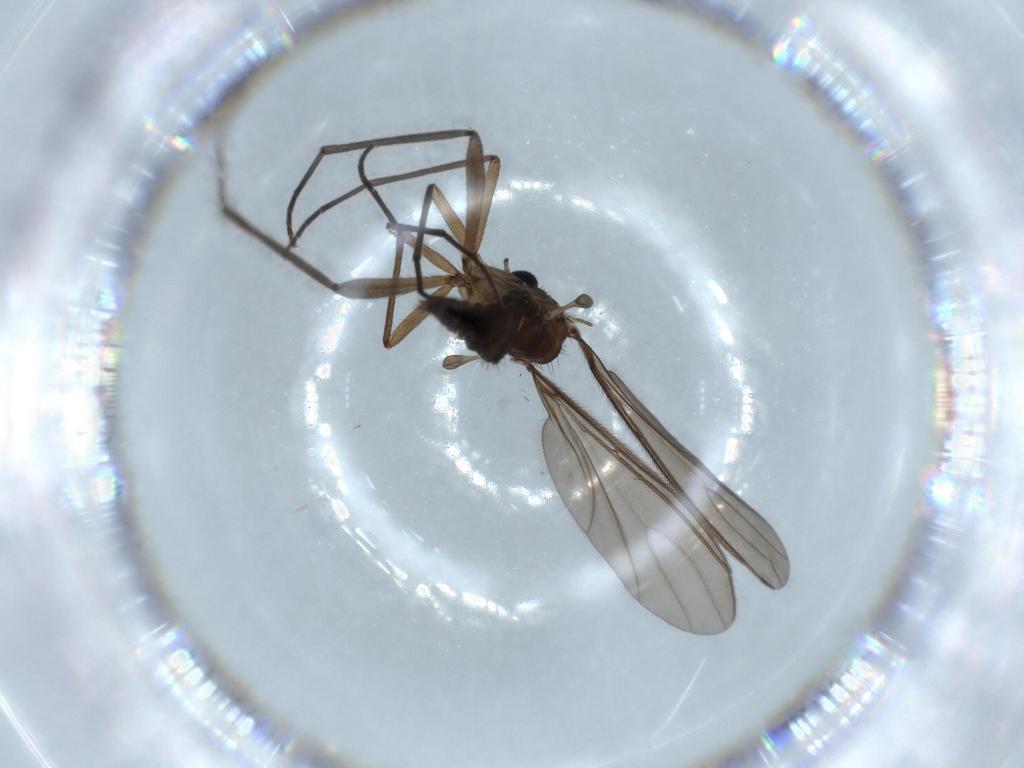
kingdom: Animalia
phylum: Arthropoda
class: Insecta
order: Diptera
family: Sciaridae
